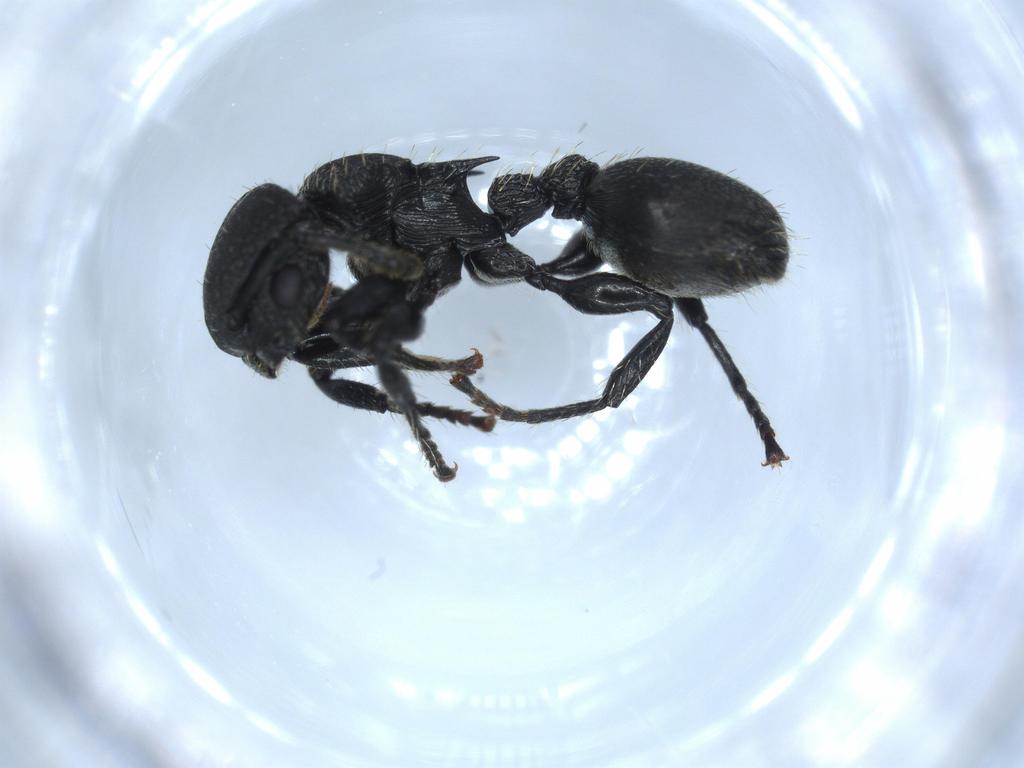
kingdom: Animalia
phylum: Arthropoda
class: Insecta
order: Hymenoptera
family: Formicidae
